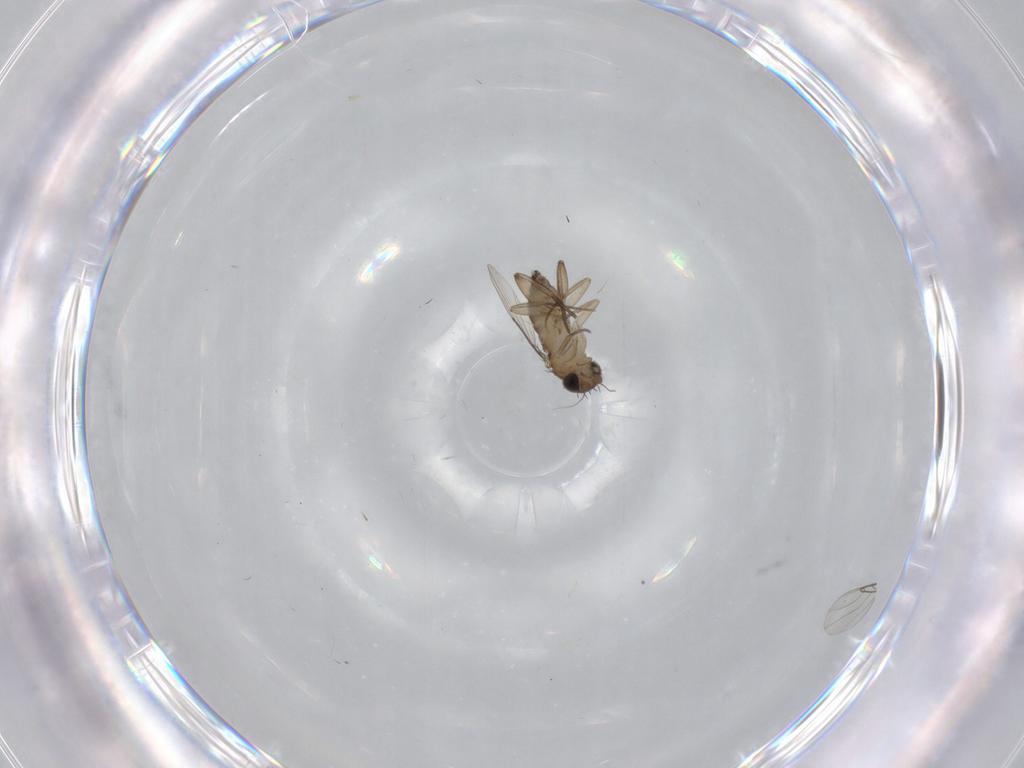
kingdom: Animalia
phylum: Arthropoda
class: Insecta
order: Diptera
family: Phoridae
